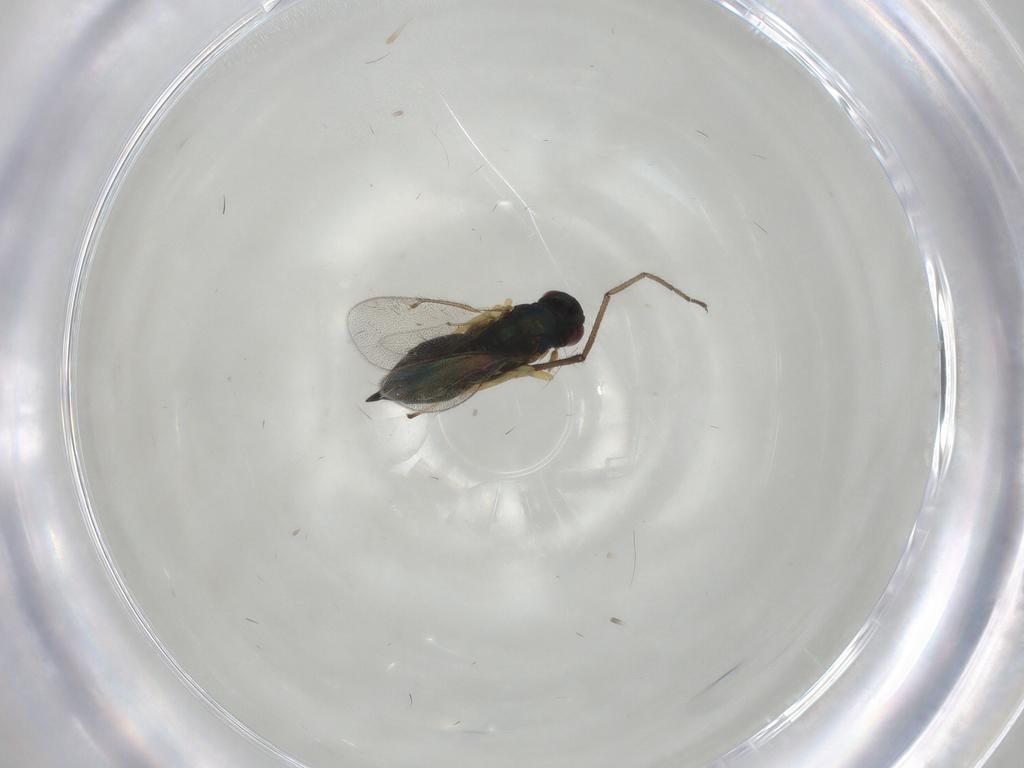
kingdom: Animalia
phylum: Arthropoda
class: Insecta
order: Hymenoptera
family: Eulophidae
